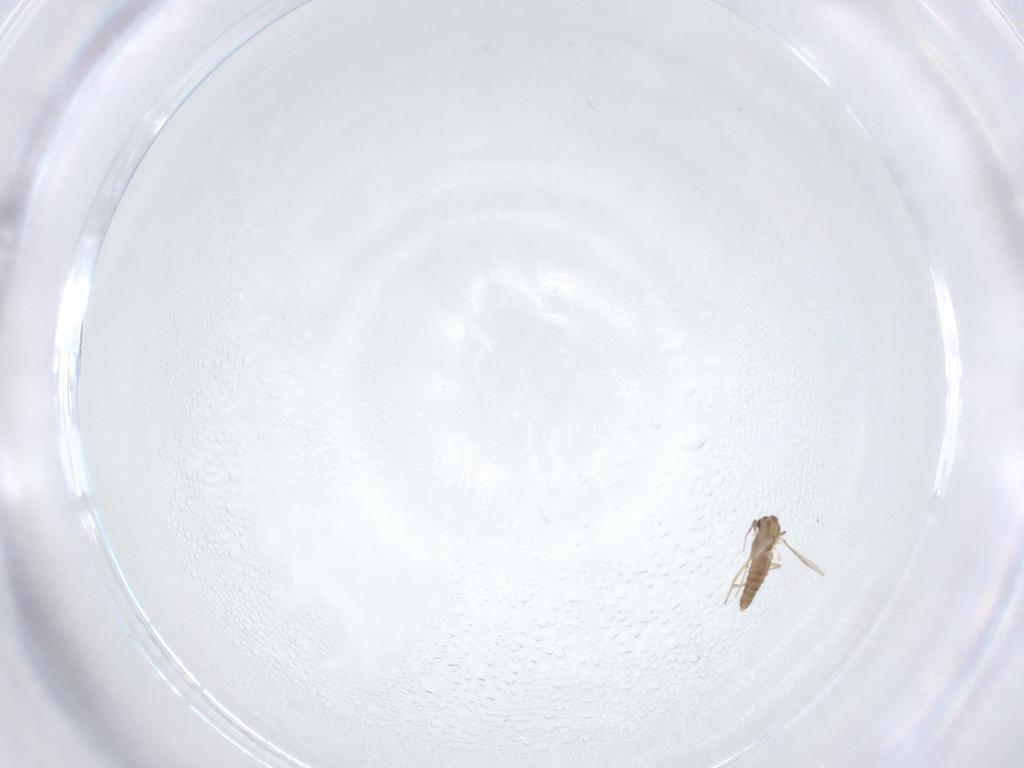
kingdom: Animalia
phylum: Arthropoda
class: Insecta
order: Diptera
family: Chironomidae
